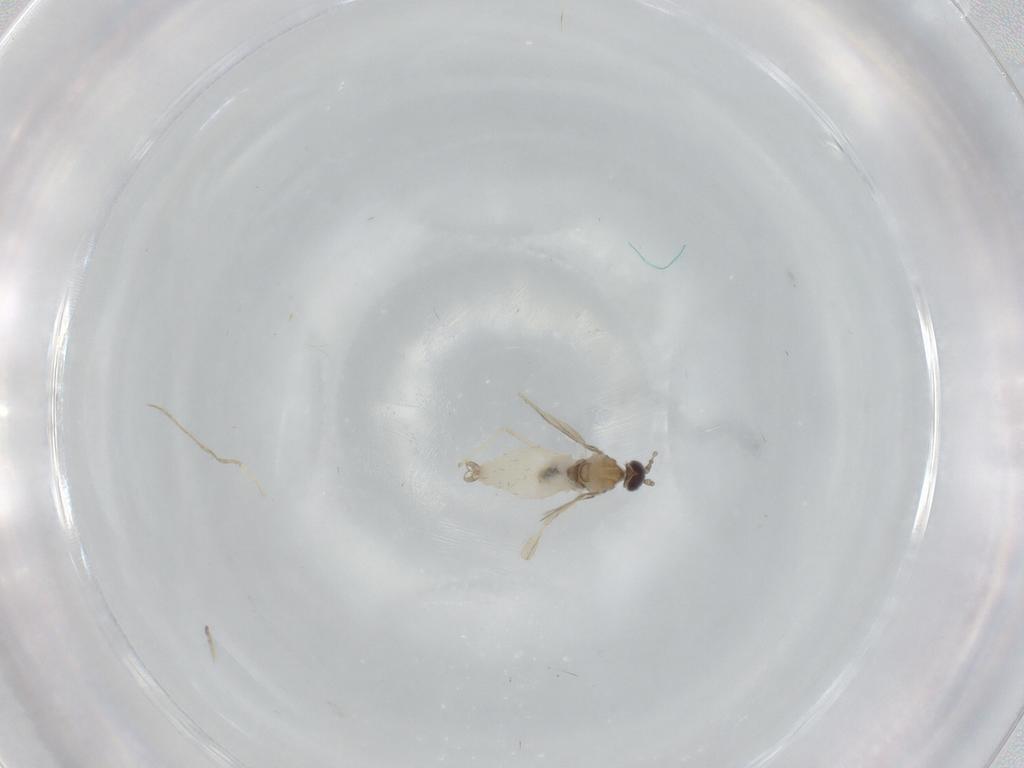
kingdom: Animalia
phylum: Arthropoda
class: Insecta
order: Diptera
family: Cecidomyiidae
